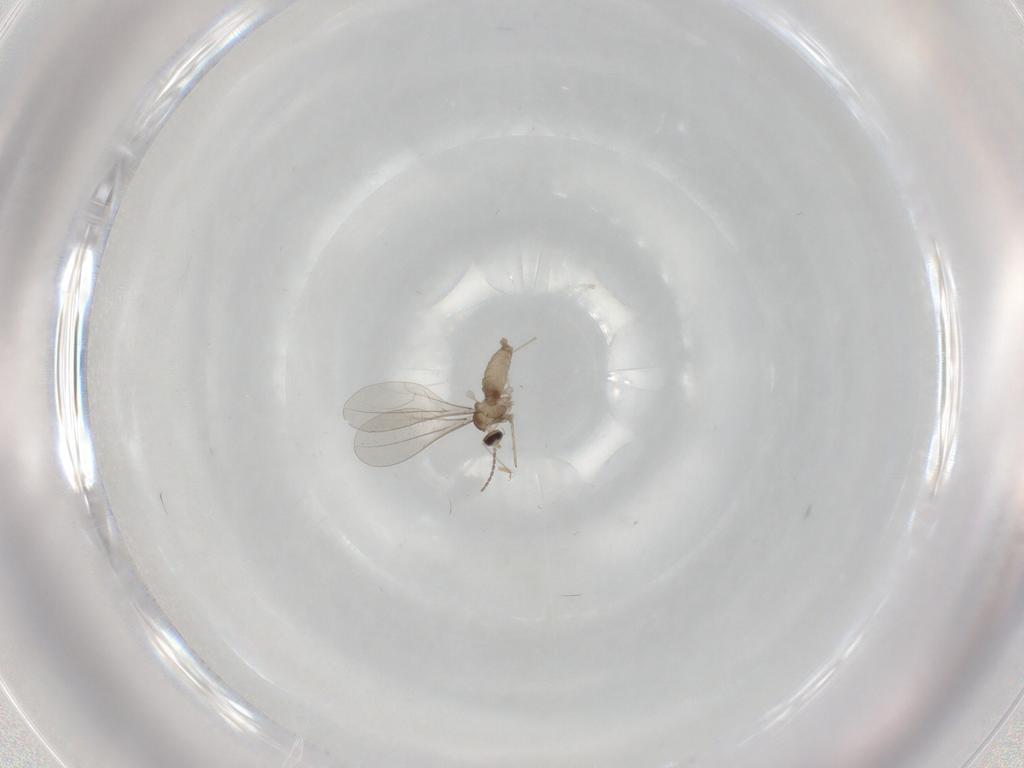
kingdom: Animalia
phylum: Arthropoda
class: Insecta
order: Diptera
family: Cecidomyiidae
